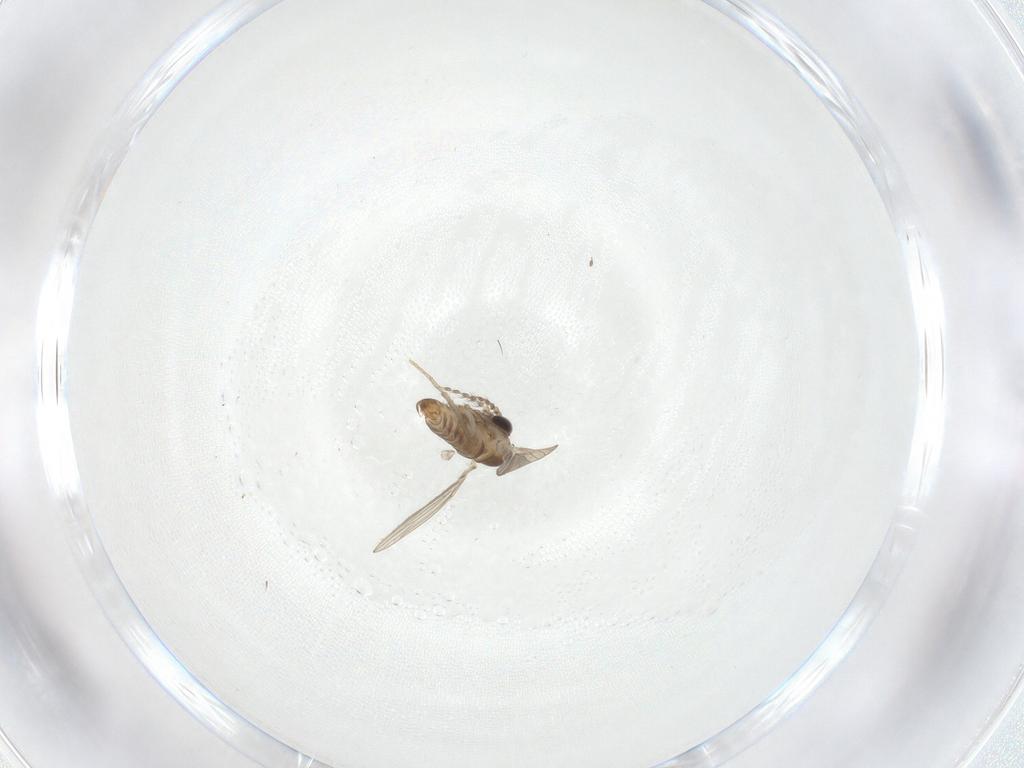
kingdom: Animalia
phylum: Arthropoda
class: Insecta
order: Diptera
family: Psychodidae
